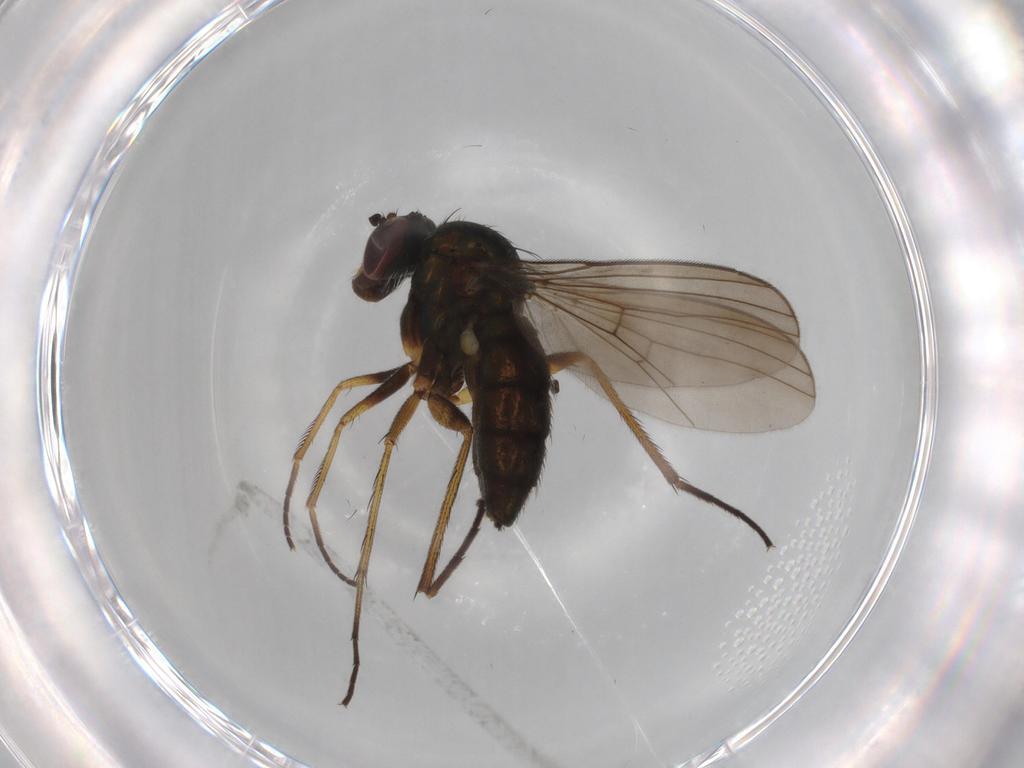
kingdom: Animalia
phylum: Arthropoda
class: Insecta
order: Diptera
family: Dolichopodidae
